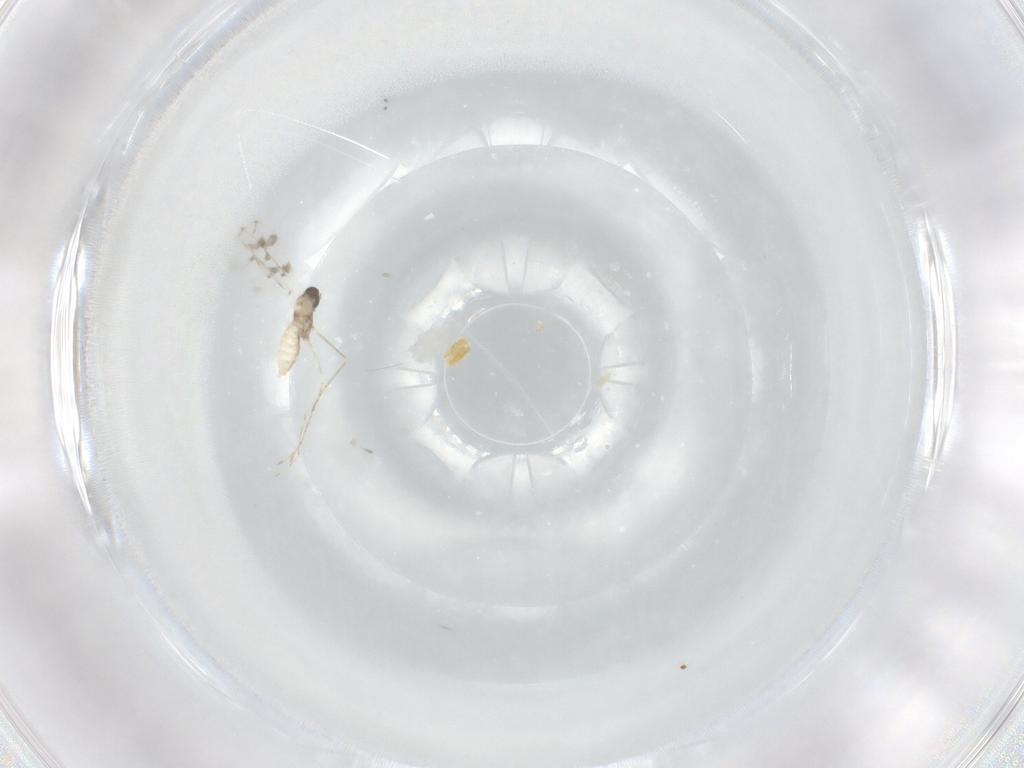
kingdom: Animalia
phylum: Arthropoda
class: Insecta
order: Diptera
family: Cecidomyiidae
